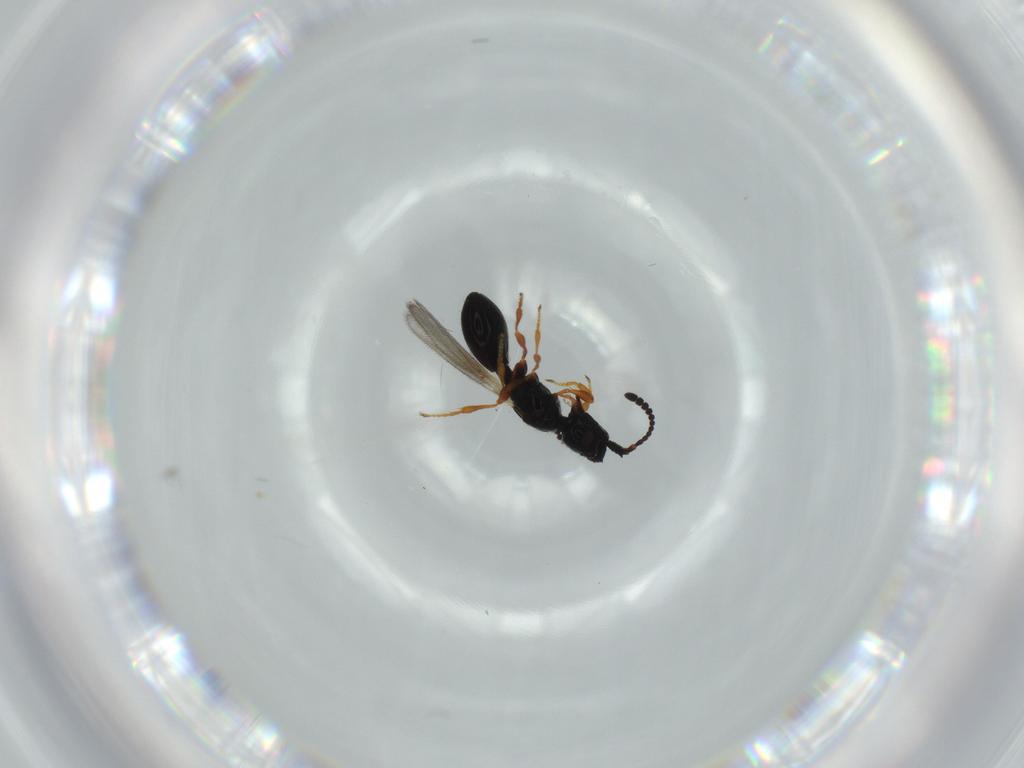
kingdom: Animalia
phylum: Arthropoda
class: Insecta
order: Hymenoptera
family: Diapriidae
